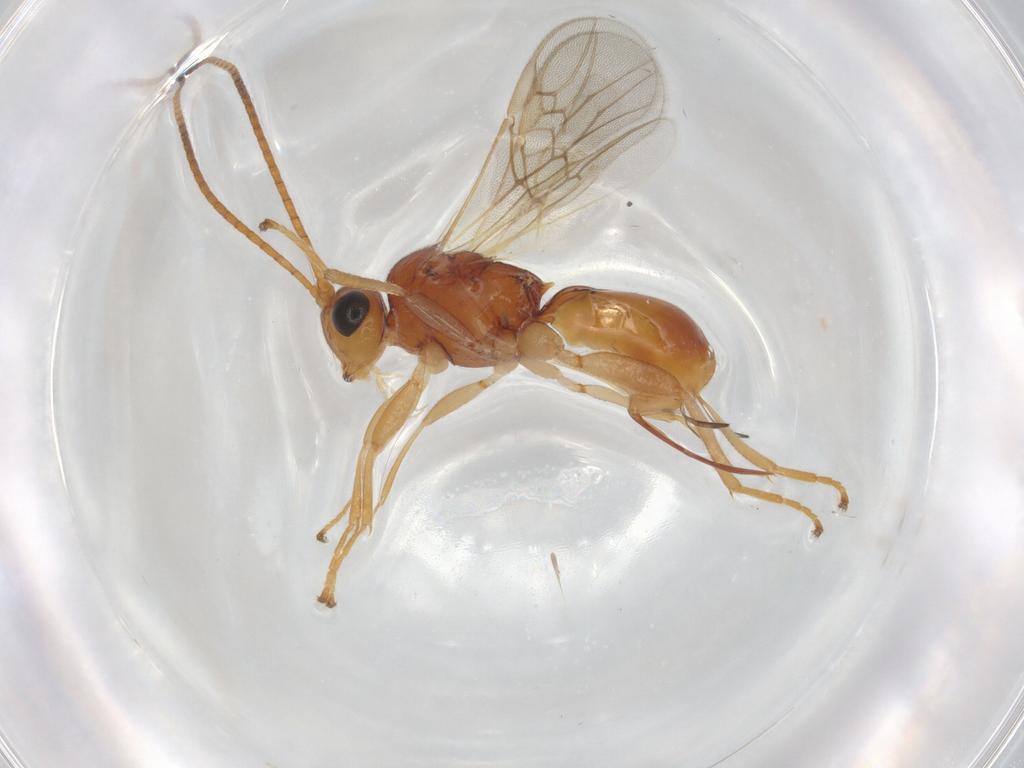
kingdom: Animalia
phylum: Arthropoda
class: Insecta
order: Hymenoptera
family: Braconidae
